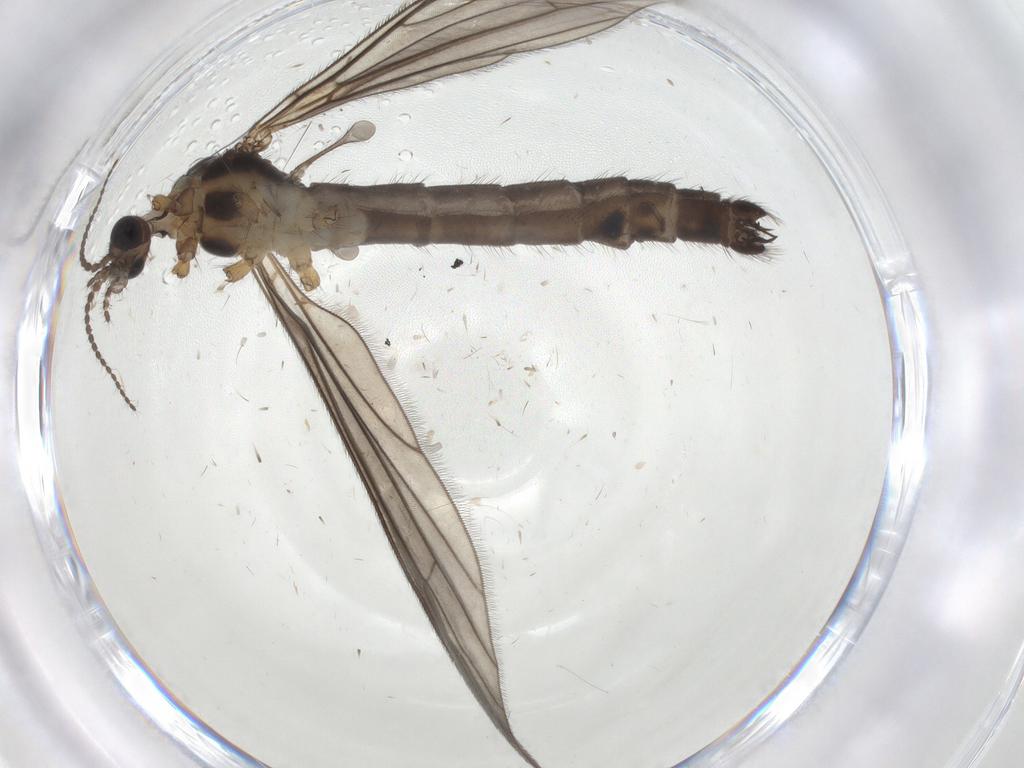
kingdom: Animalia
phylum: Arthropoda
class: Insecta
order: Diptera
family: Limoniidae
